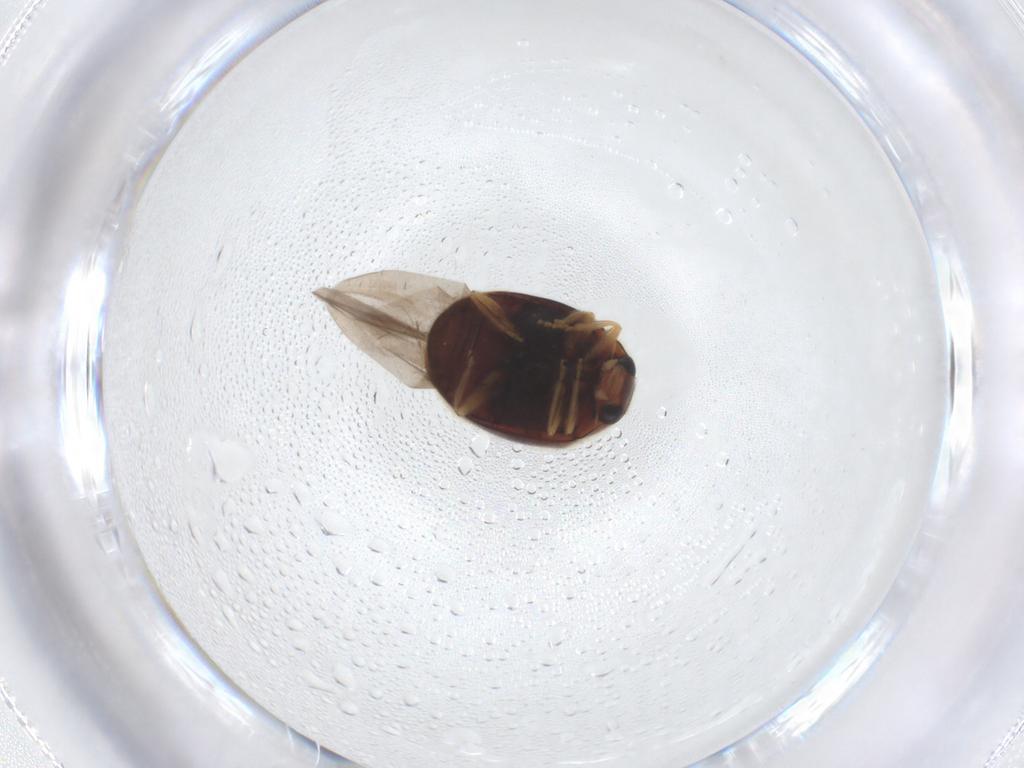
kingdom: Animalia
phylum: Arthropoda
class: Insecta
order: Coleoptera
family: Coccinellidae
